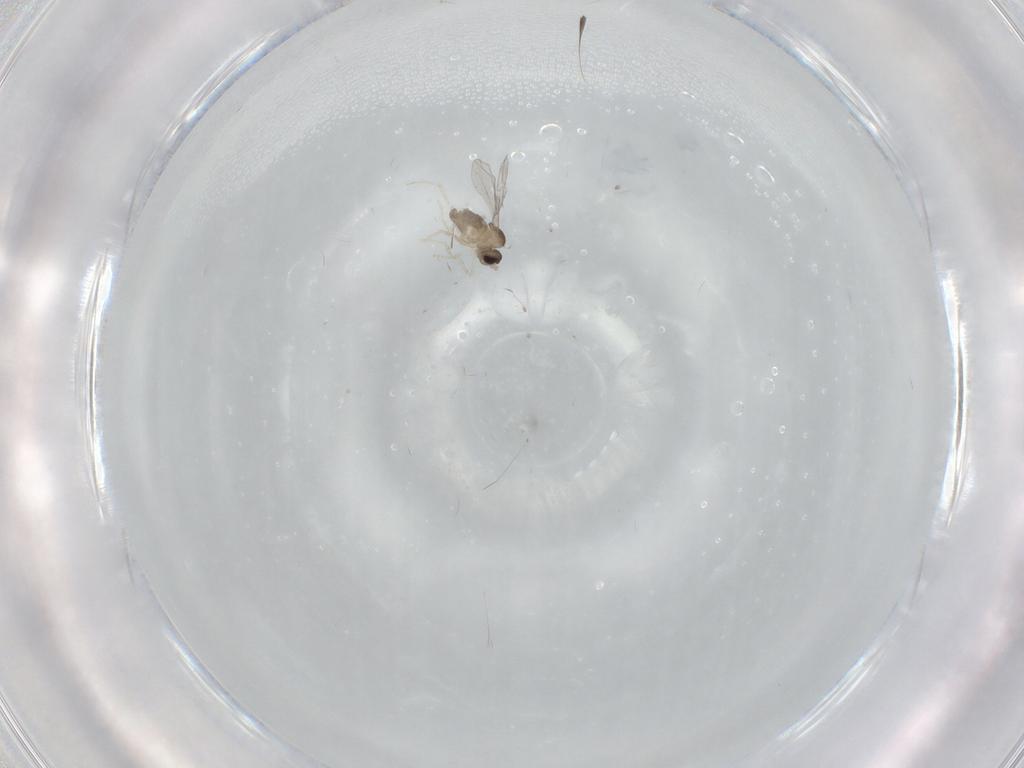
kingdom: Animalia
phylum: Arthropoda
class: Insecta
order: Diptera
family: Cecidomyiidae
